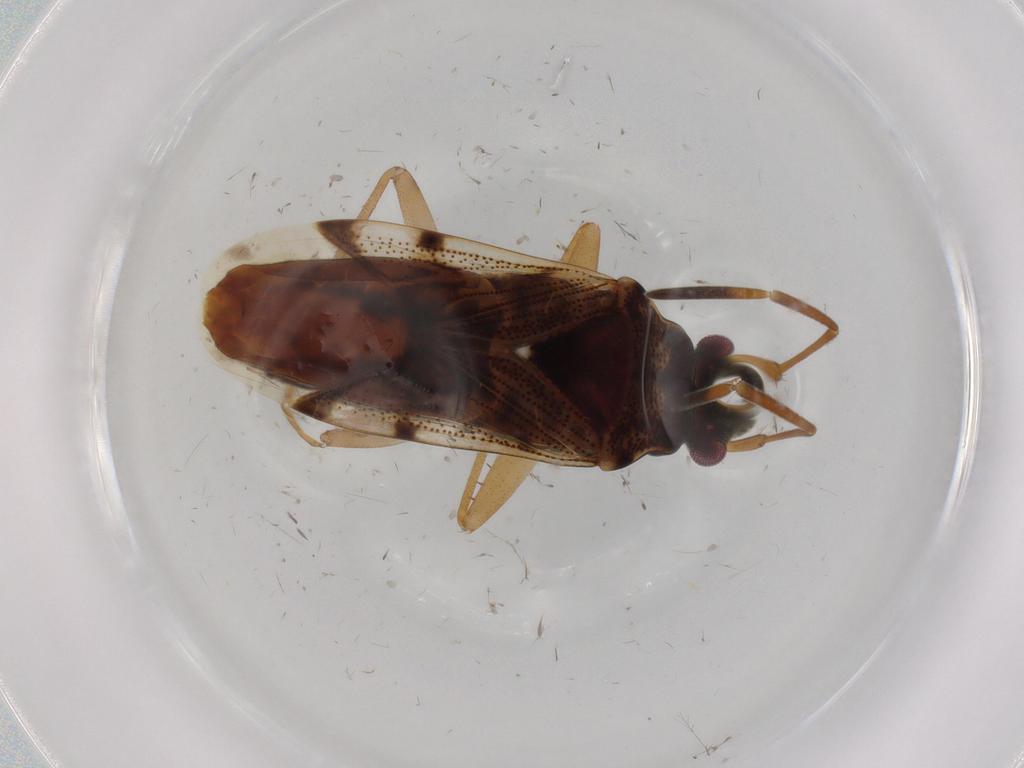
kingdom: Animalia
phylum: Arthropoda
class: Insecta
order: Hemiptera
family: Rhyparochromidae
